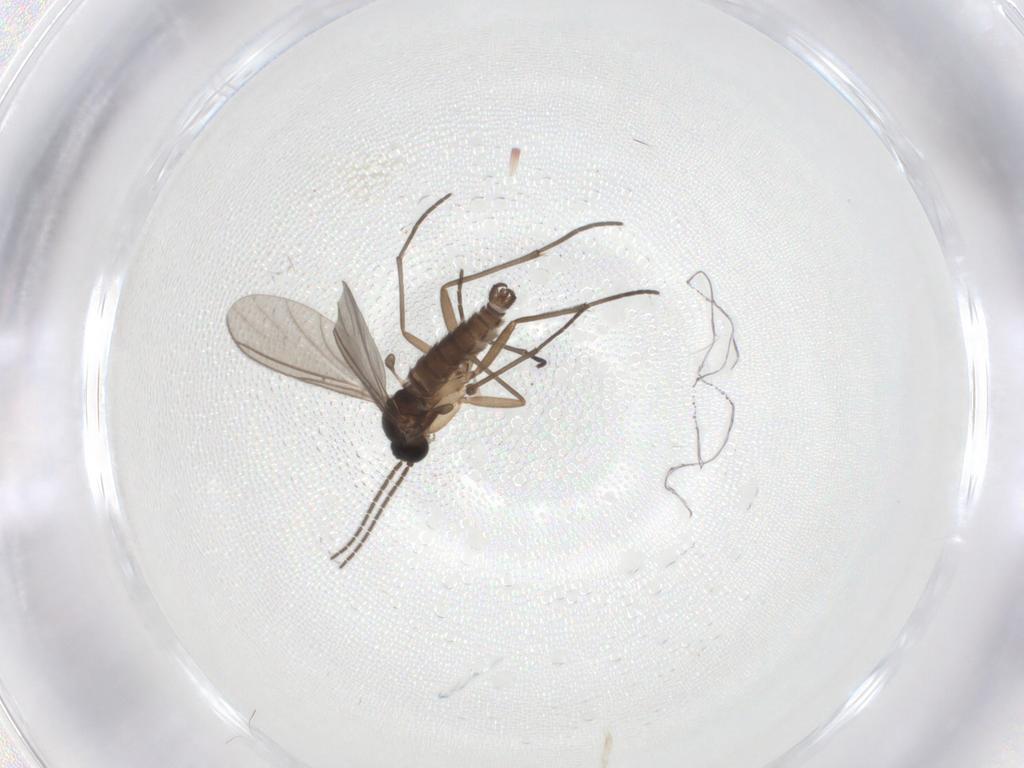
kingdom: Animalia
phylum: Arthropoda
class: Insecta
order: Diptera
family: Sciaridae
